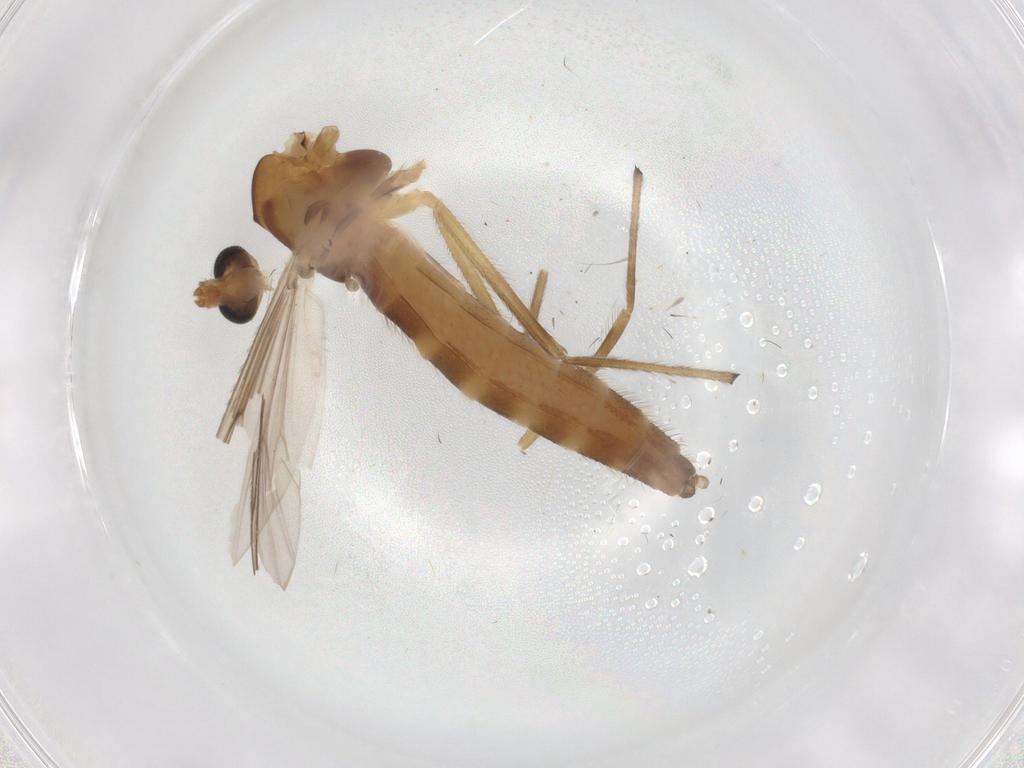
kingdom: Animalia
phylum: Arthropoda
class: Insecta
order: Diptera
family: Chironomidae
